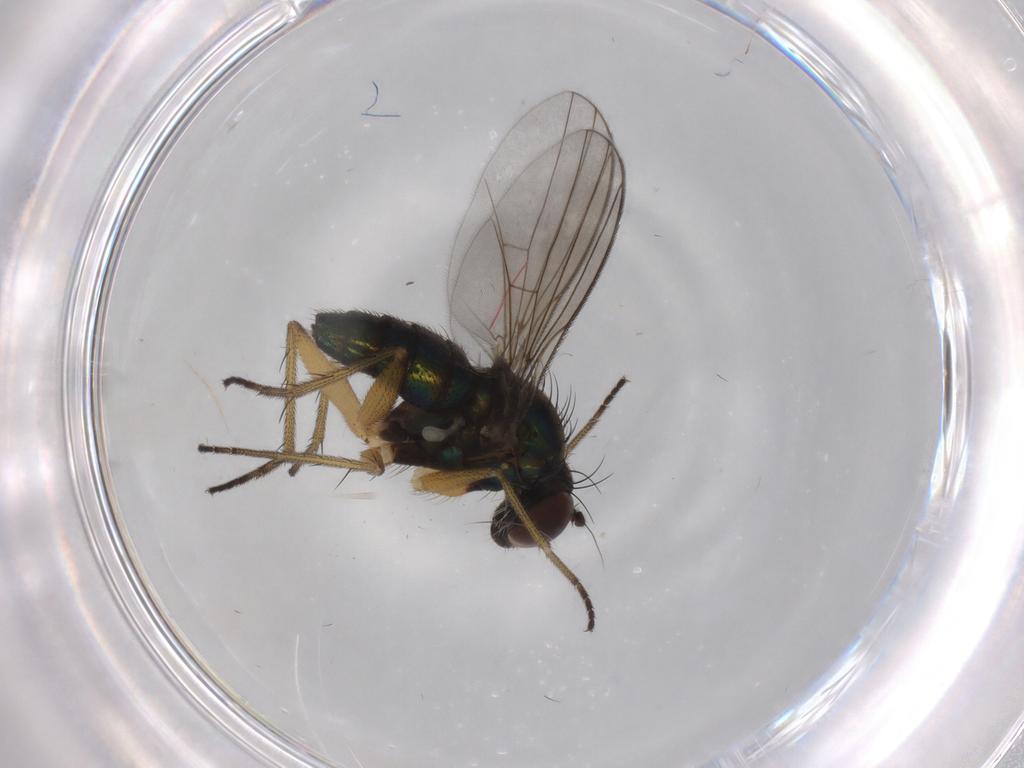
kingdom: Animalia
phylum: Arthropoda
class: Insecta
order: Diptera
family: Dolichopodidae
